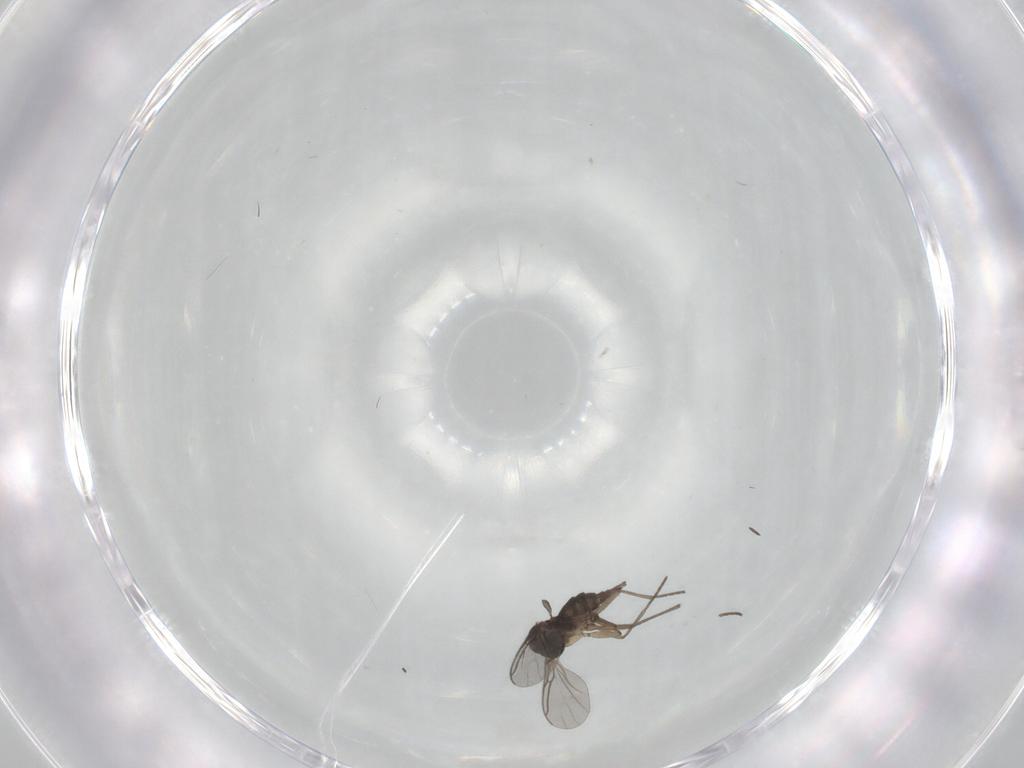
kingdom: Animalia
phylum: Arthropoda
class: Insecta
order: Diptera
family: Sciaridae
